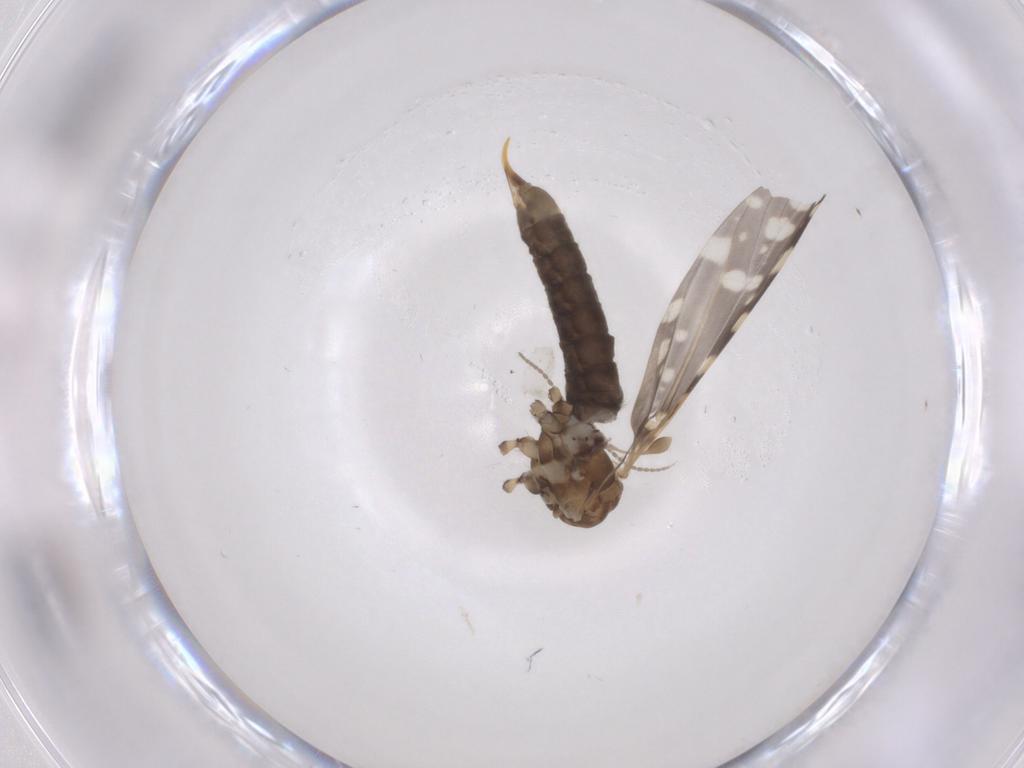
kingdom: Animalia
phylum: Arthropoda
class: Insecta
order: Diptera
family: Limoniidae
